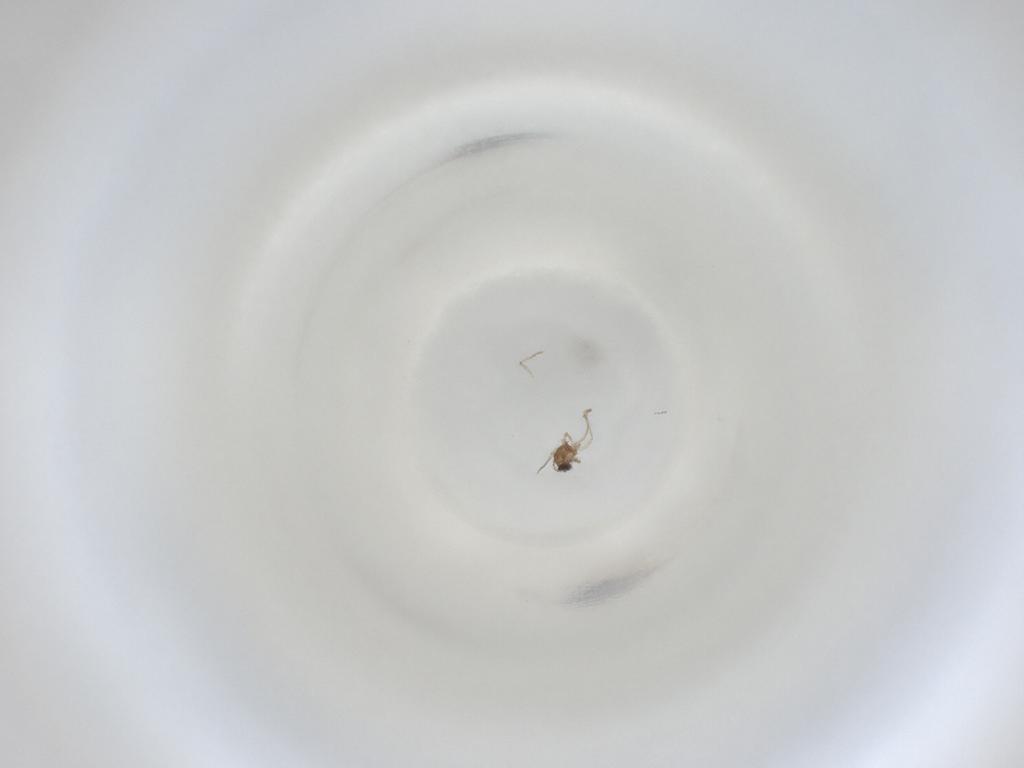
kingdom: Animalia
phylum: Arthropoda
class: Insecta
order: Diptera
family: Cecidomyiidae
